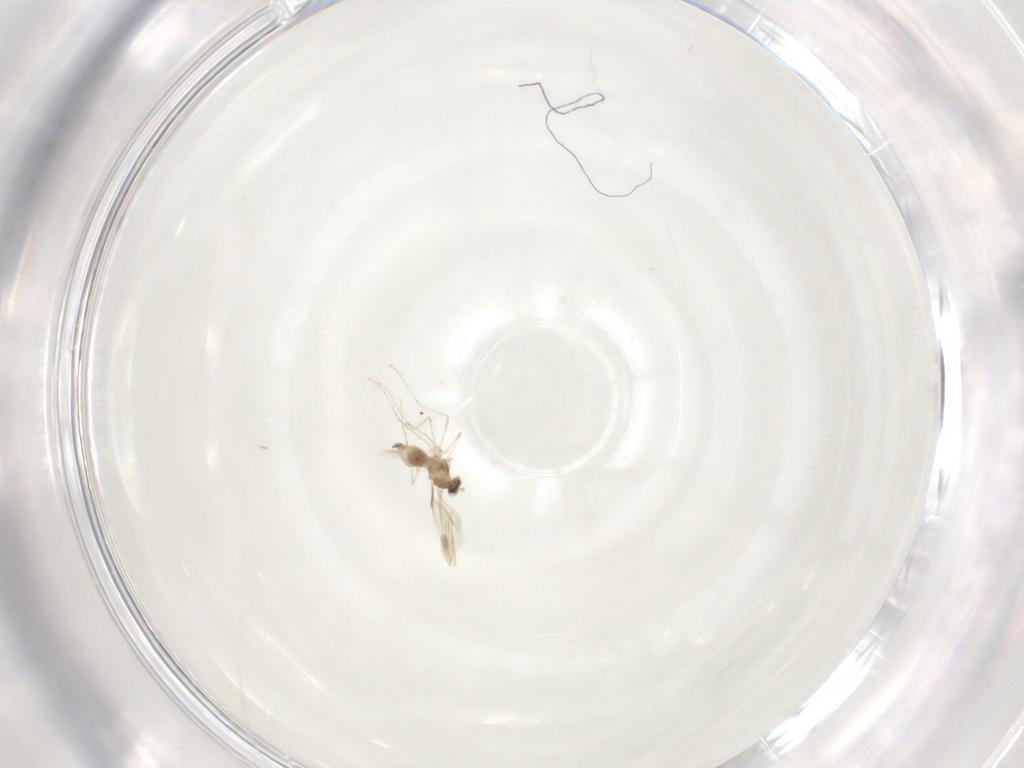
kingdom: Animalia
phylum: Arthropoda
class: Insecta
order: Diptera
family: Cecidomyiidae
